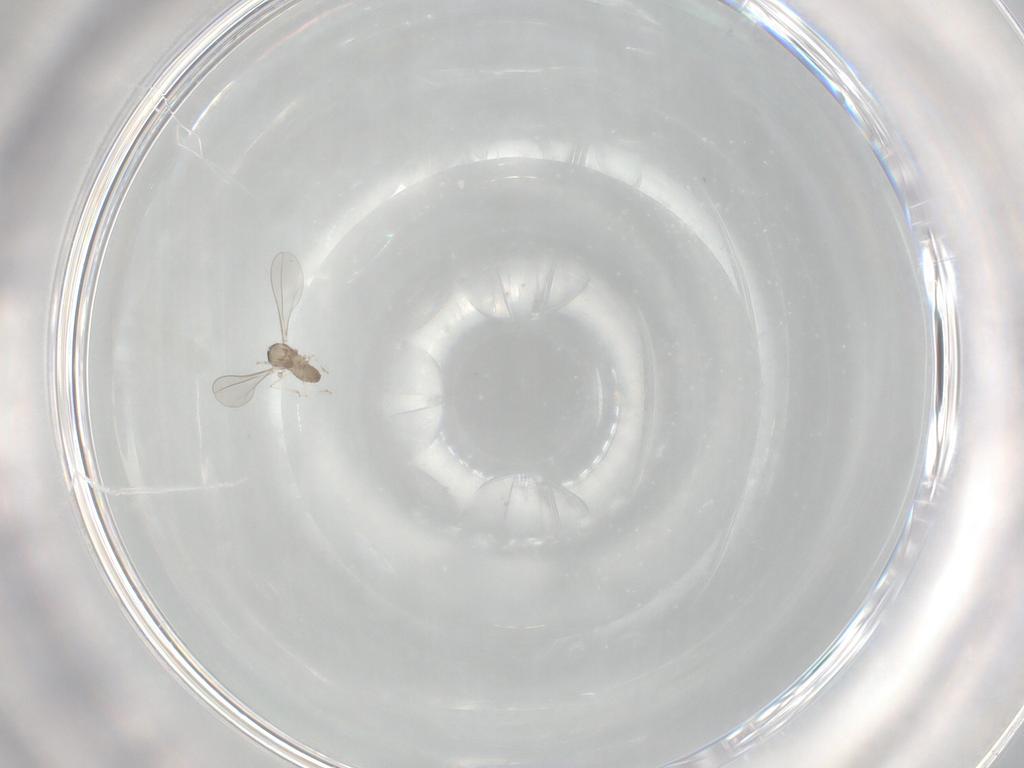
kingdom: Animalia
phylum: Arthropoda
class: Insecta
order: Diptera
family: Cecidomyiidae
